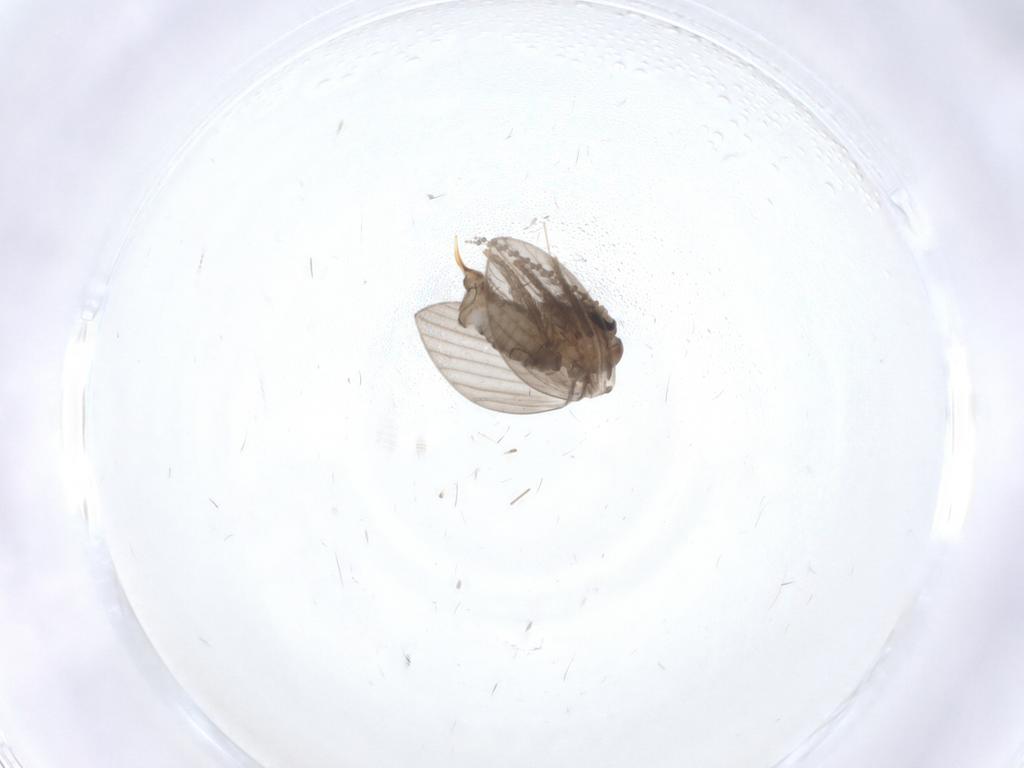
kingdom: Animalia
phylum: Arthropoda
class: Insecta
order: Diptera
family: Psychodidae
